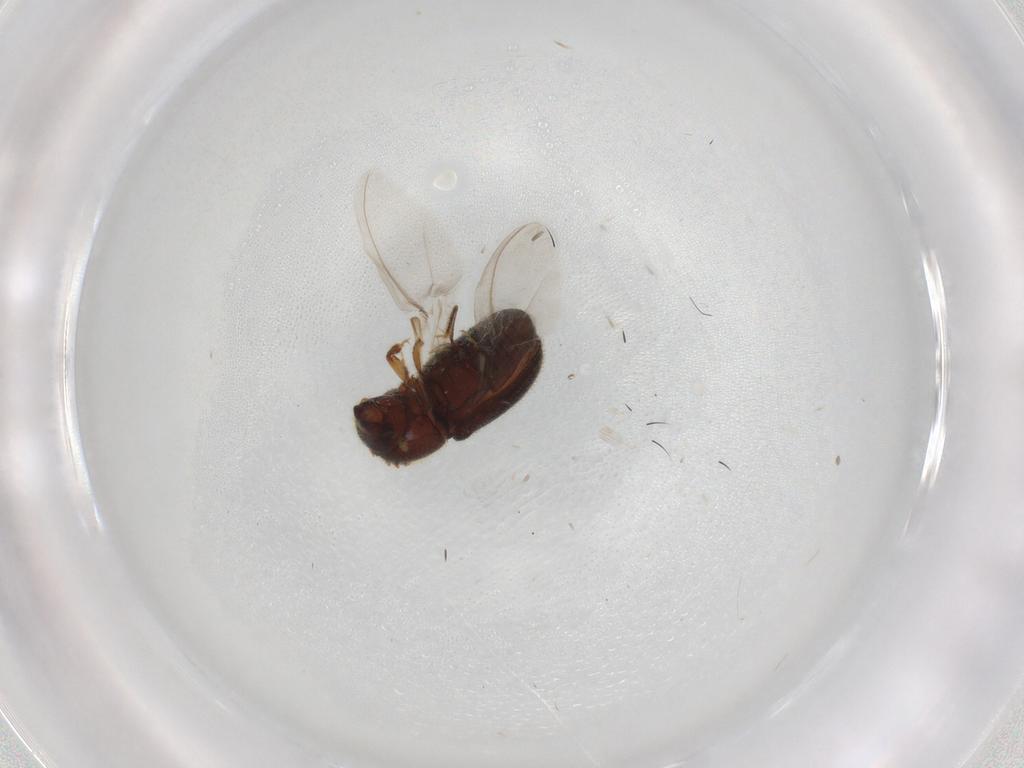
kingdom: Animalia
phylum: Arthropoda
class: Insecta
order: Coleoptera
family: Curculionidae
